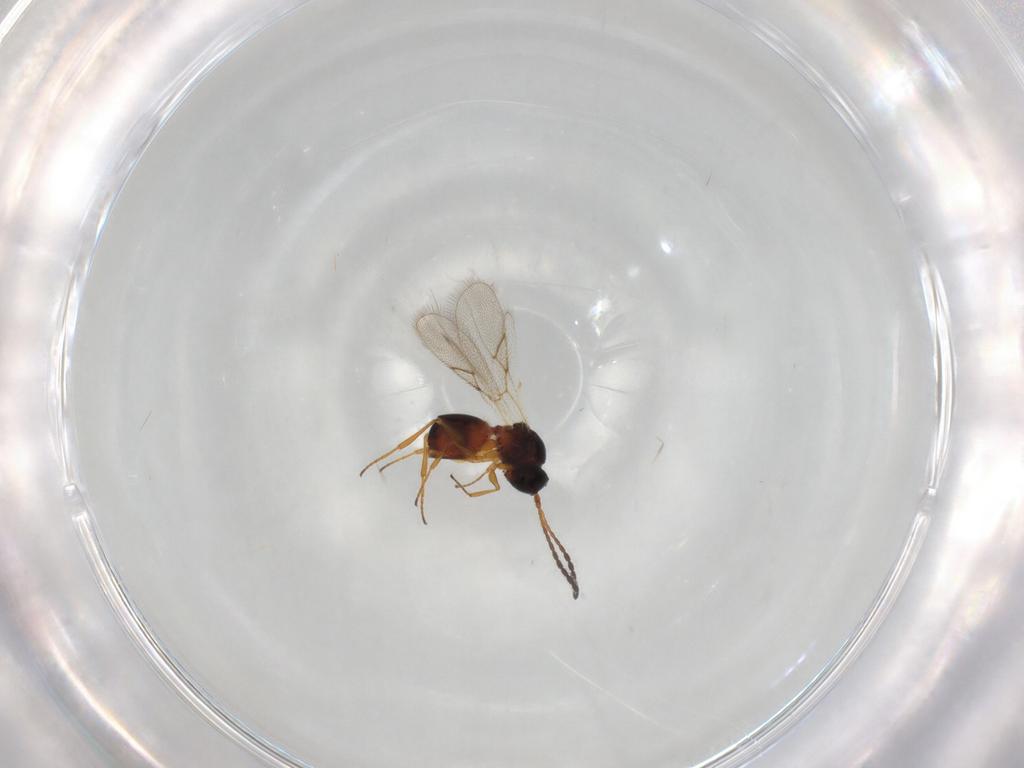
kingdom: Animalia
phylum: Arthropoda
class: Insecta
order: Hymenoptera
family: Figitidae
